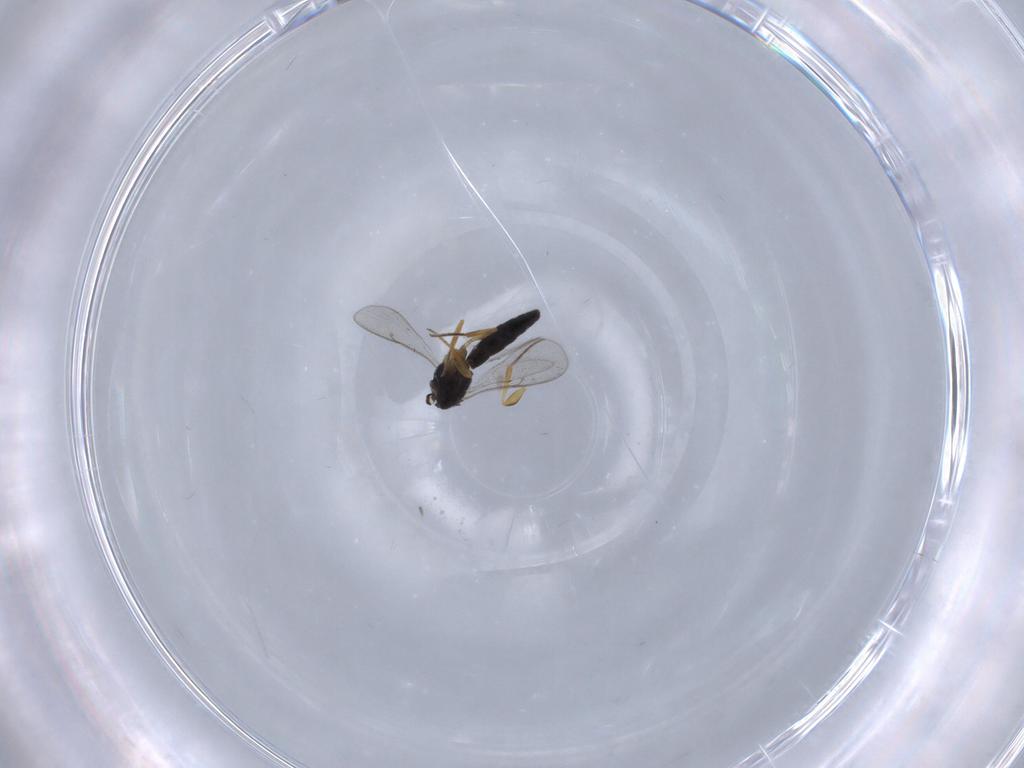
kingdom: Animalia
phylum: Arthropoda
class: Insecta
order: Hymenoptera
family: Scelionidae
